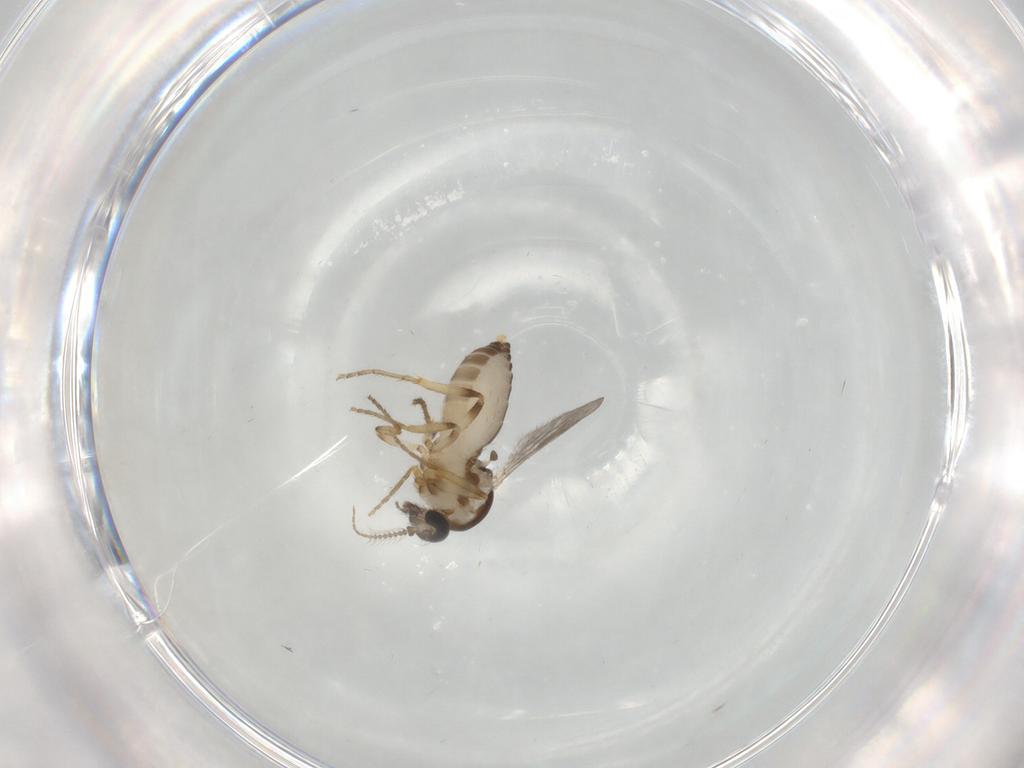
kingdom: Animalia
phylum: Arthropoda
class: Insecta
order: Diptera
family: Ceratopogonidae
